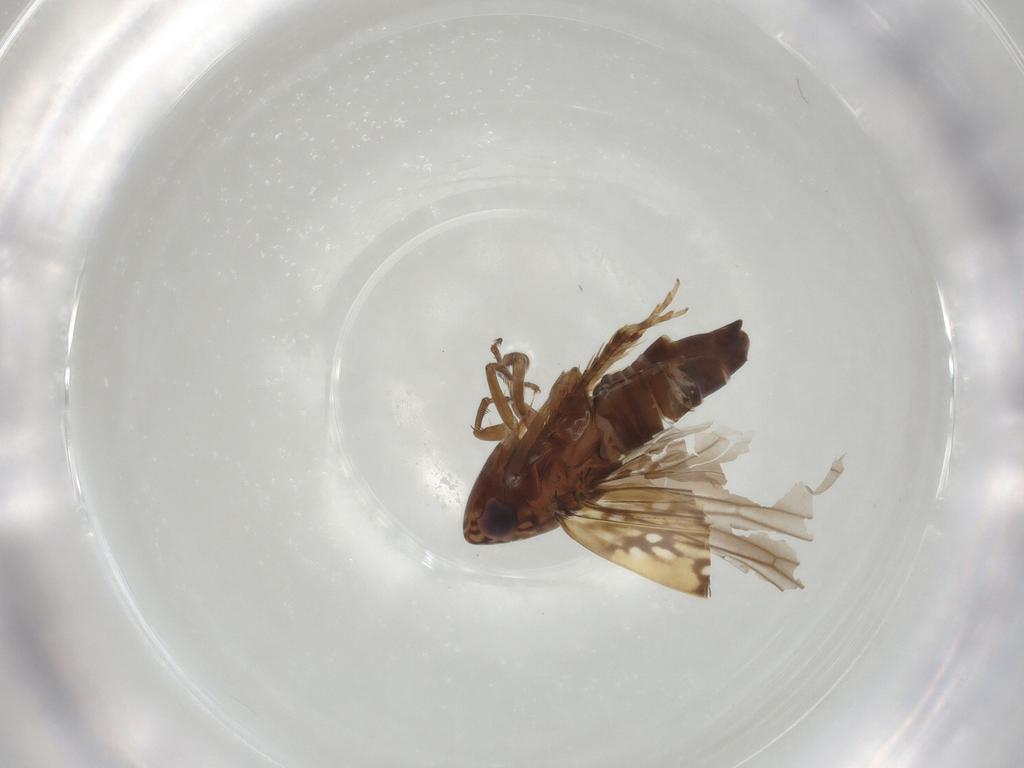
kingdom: Animalia
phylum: Arthropoda
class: Insecta
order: Hemiptera
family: Cicadellidae
